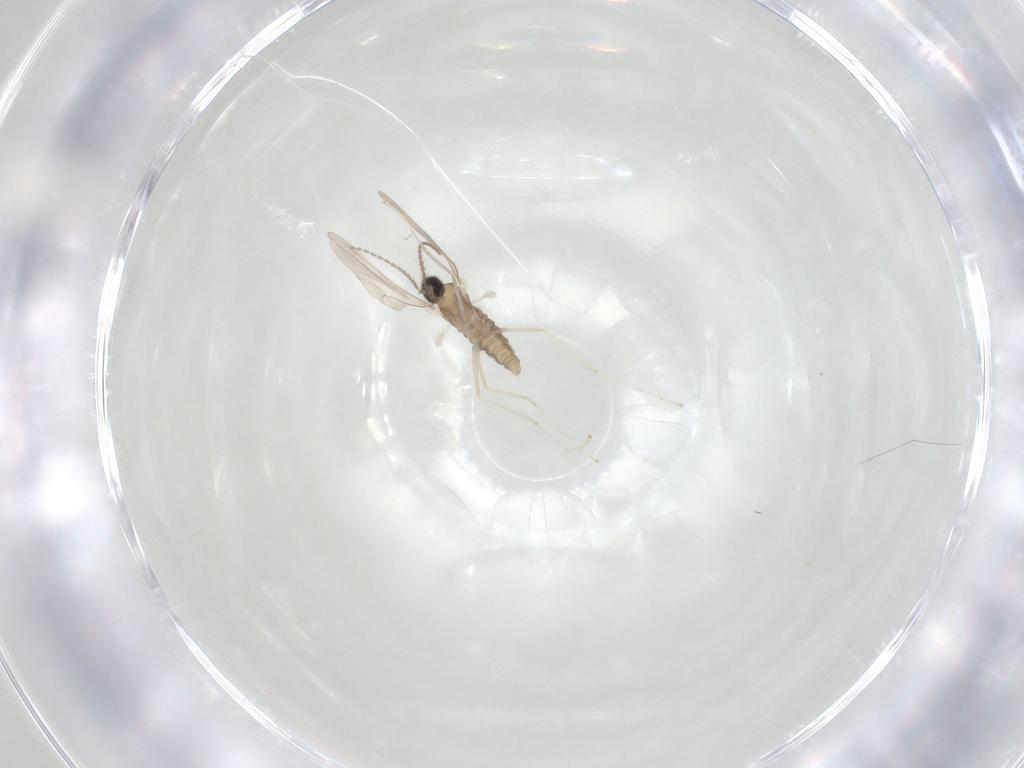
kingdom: Animalia
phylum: Arthropoda
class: Insecta
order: Diptera
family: Cecidomyiidae
